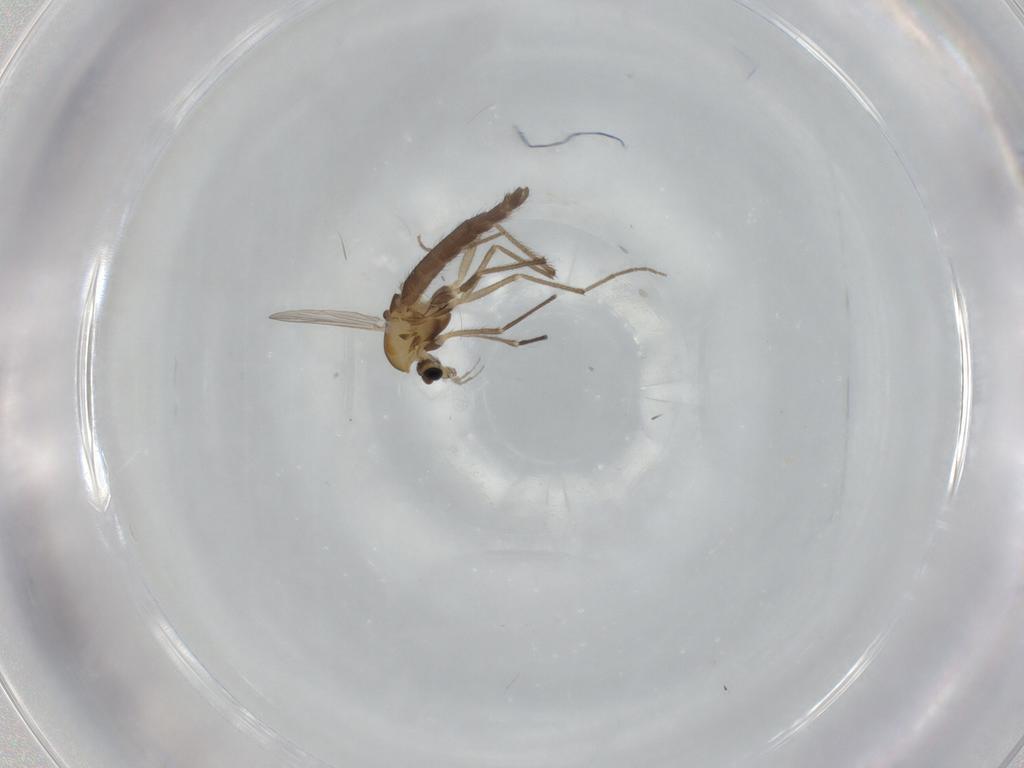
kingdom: Animalia
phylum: Arthropoda
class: Insecta
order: Diptera
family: Chironomidae
